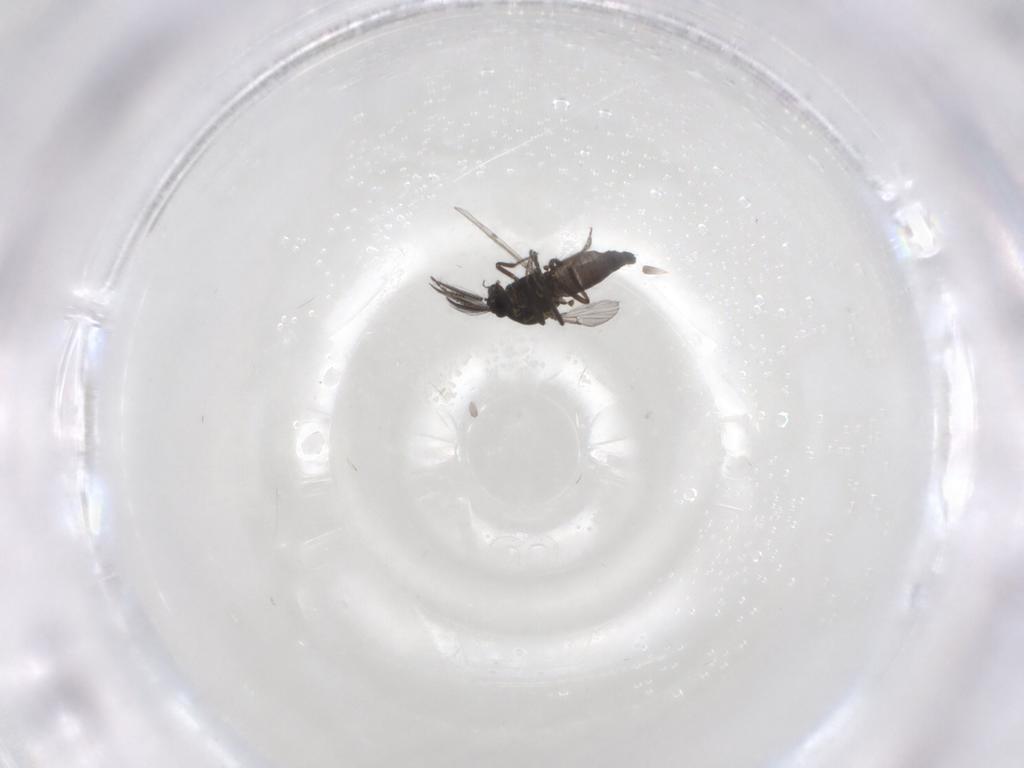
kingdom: Animalia
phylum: Arthropoda
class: Insecta
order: Diptera
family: Ceratopogonidae
